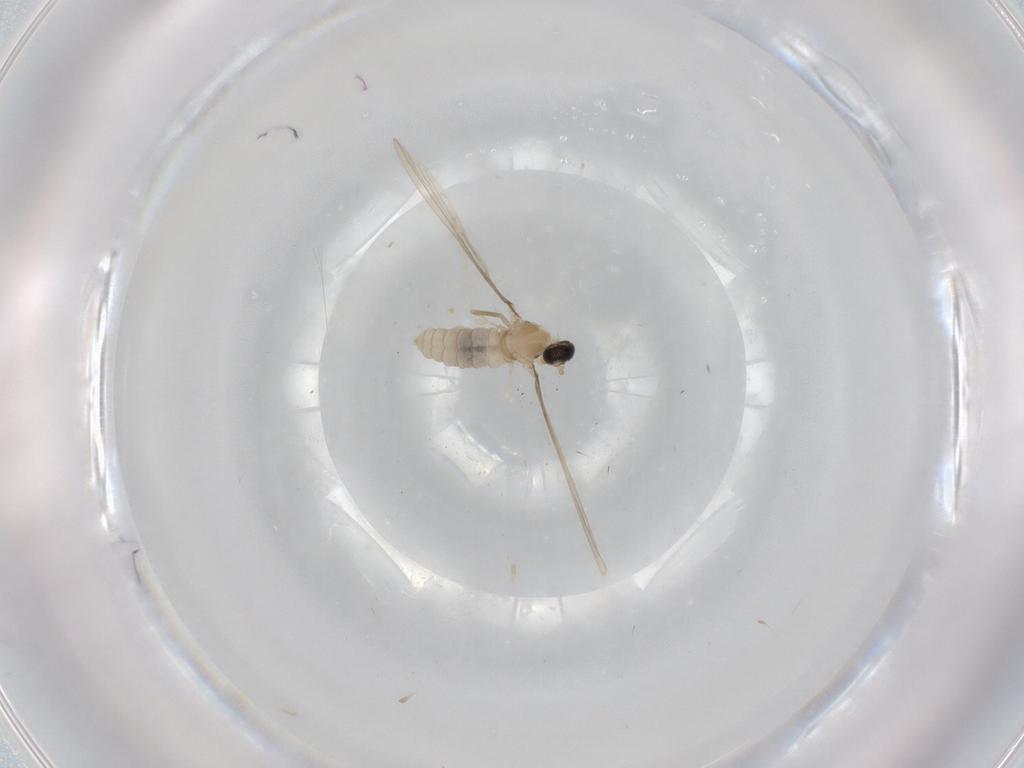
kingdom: Animalia
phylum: Arthropoda
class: Insecta
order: Diptera
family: Cecidomyiidae
